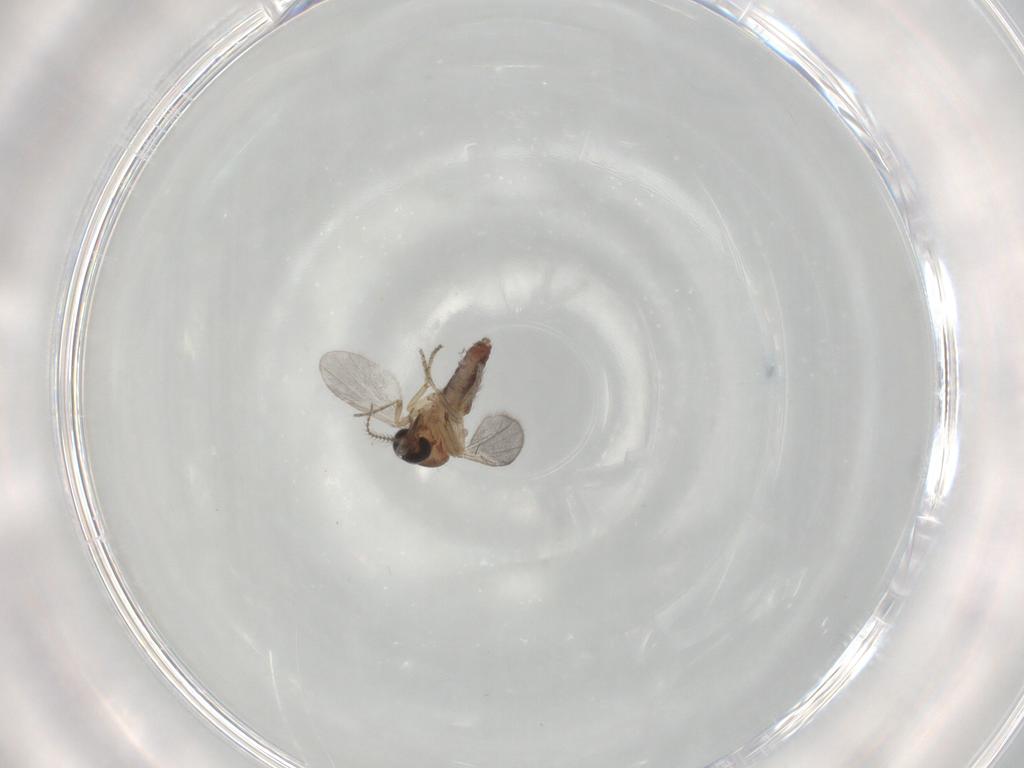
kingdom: Animalia
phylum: Arthropoda
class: Insecta
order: Diptera
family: Ceratopogonidae
